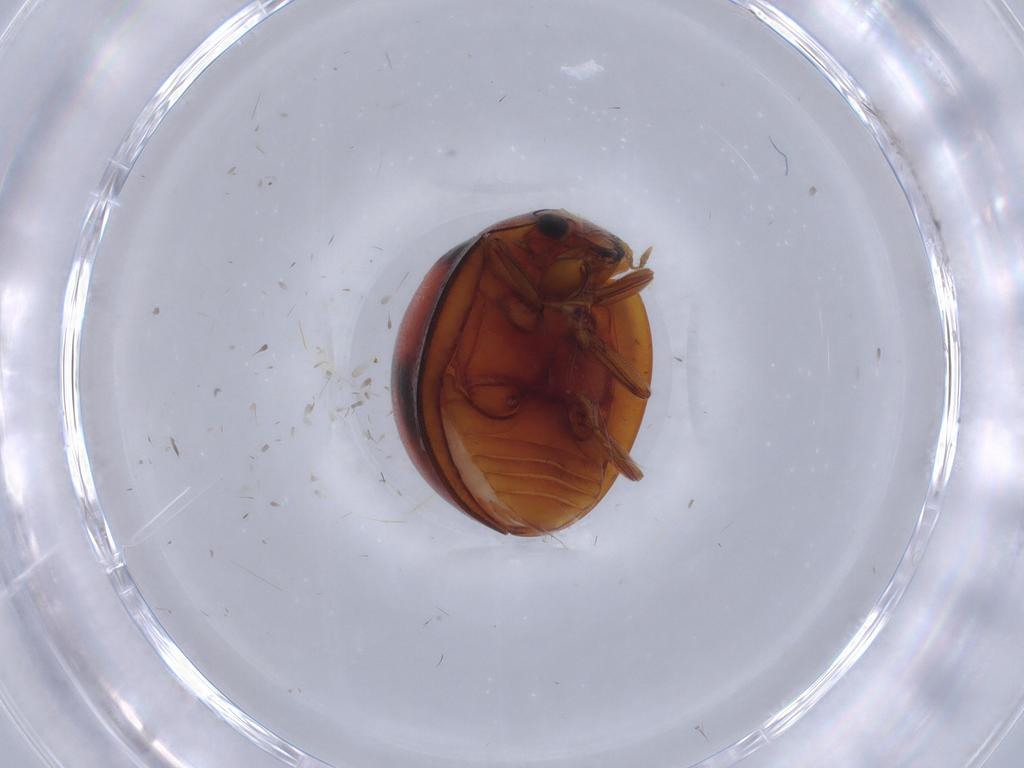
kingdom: Animalia
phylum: Arthropoda
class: Insecta
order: Coleoptera
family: Coccinellidae
